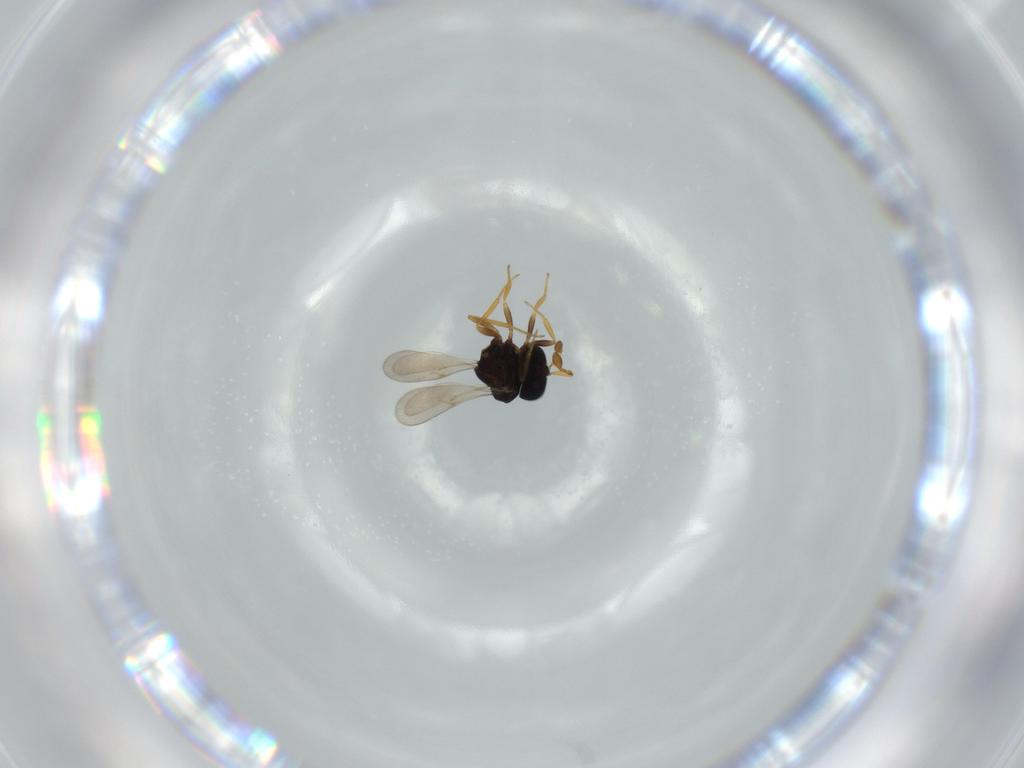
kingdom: Animalia
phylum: Arthropoda
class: Insecta
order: Hymenoptera
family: Scelionidae
